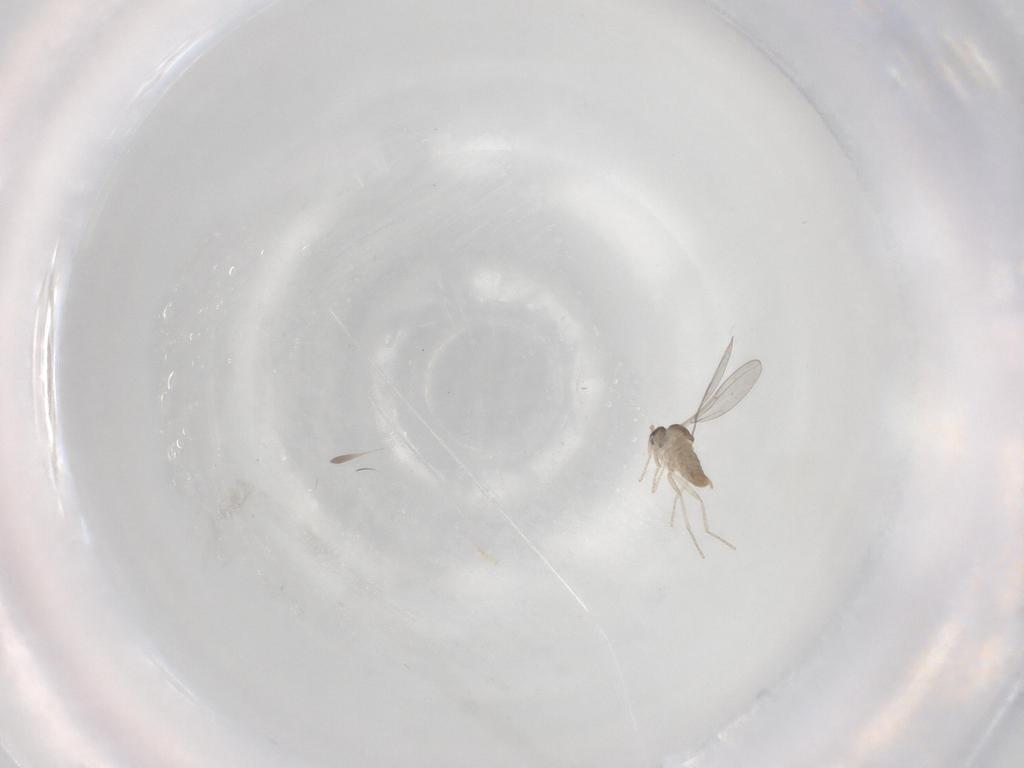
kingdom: Animalia
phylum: Arthropoda
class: Insecta
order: Diptera
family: Cecidomyiidae
